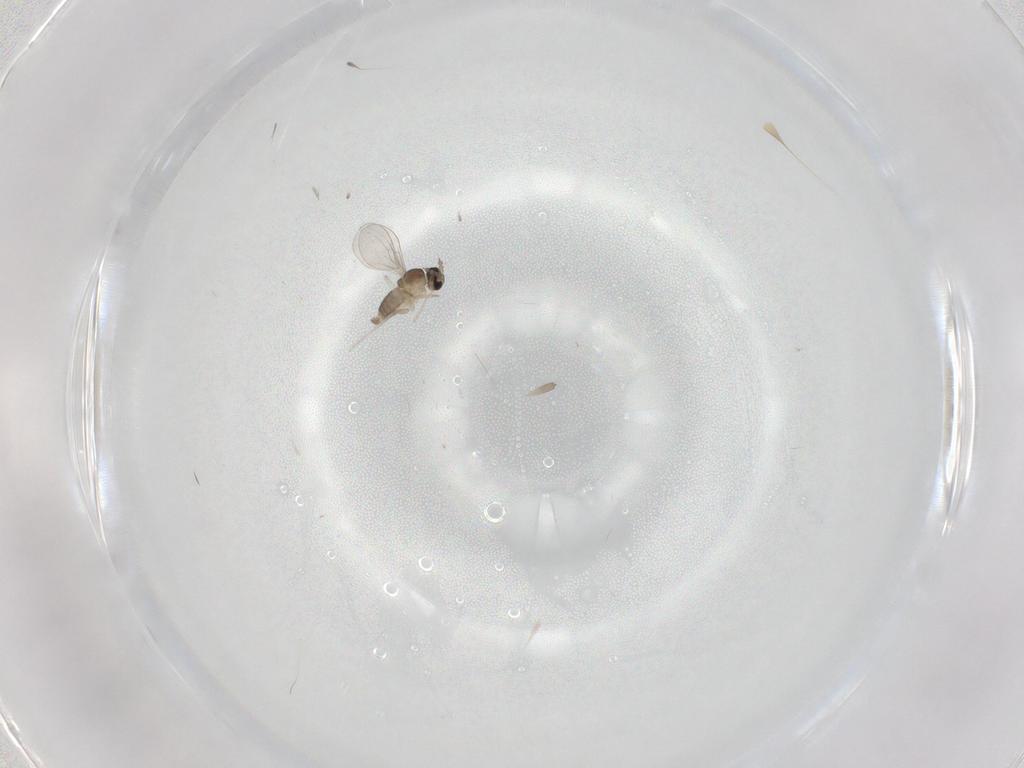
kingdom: Animalia
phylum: Arthropoda
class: Insecta
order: Diptera
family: Cecidomyiidae
